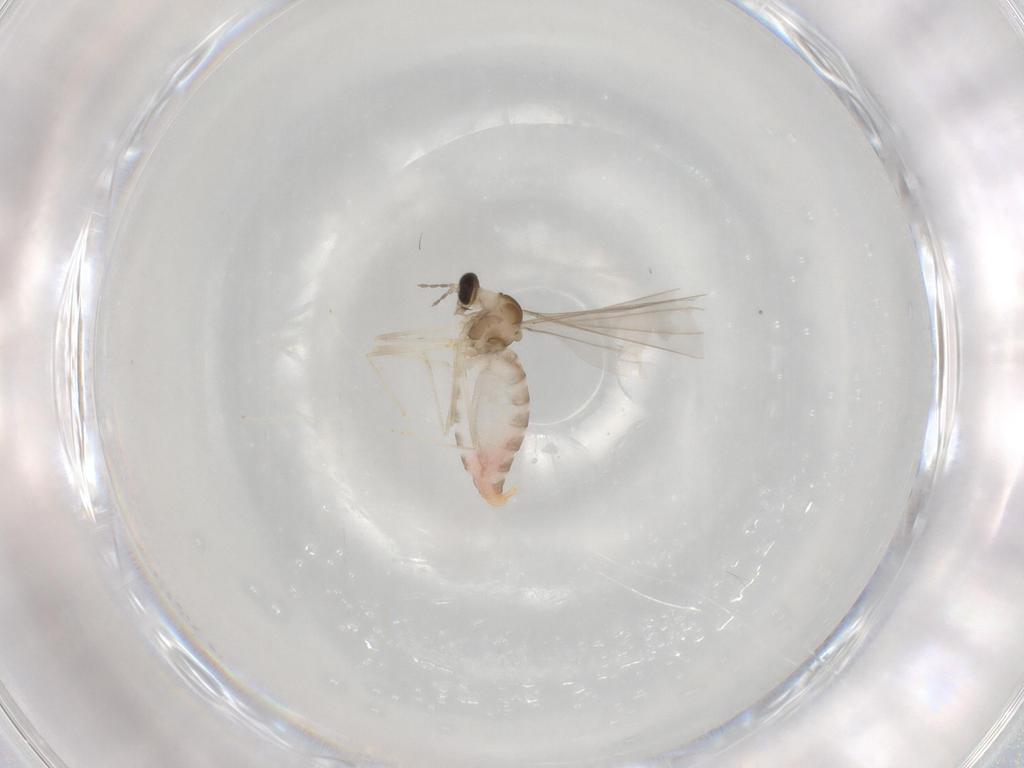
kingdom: Animalia
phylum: Arthropoda
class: Insecta
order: Diptera
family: Cecidomyiidae
